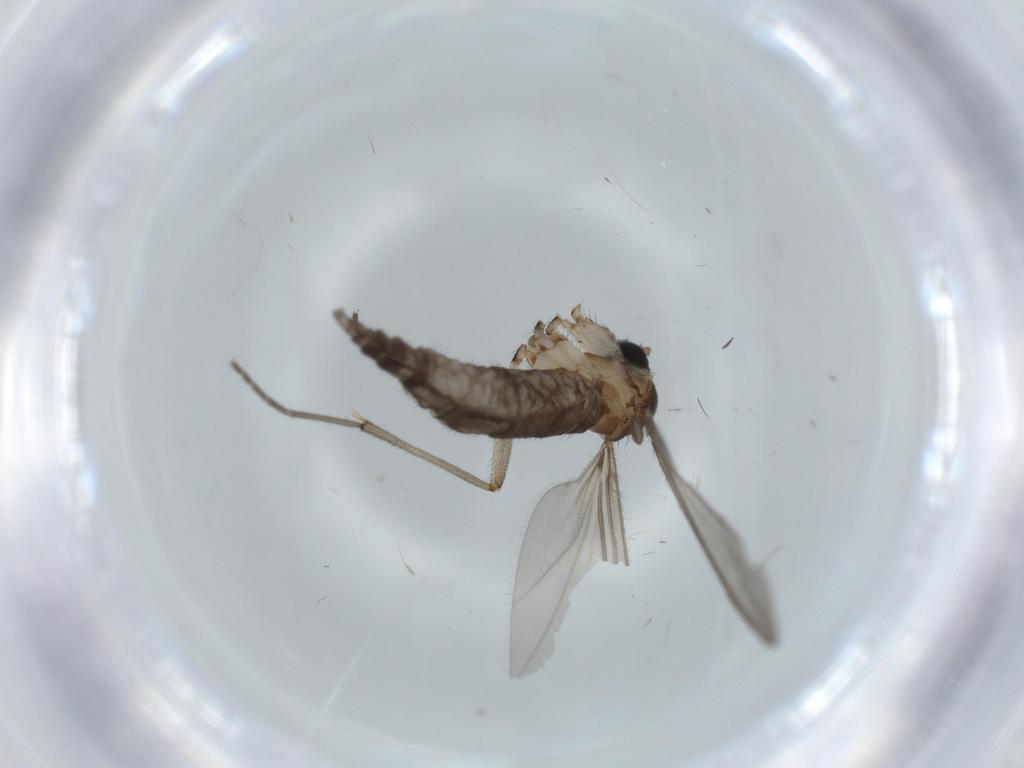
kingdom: Animalia
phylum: Arthropoda
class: Insecta
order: Diptera
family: Sciaridae
